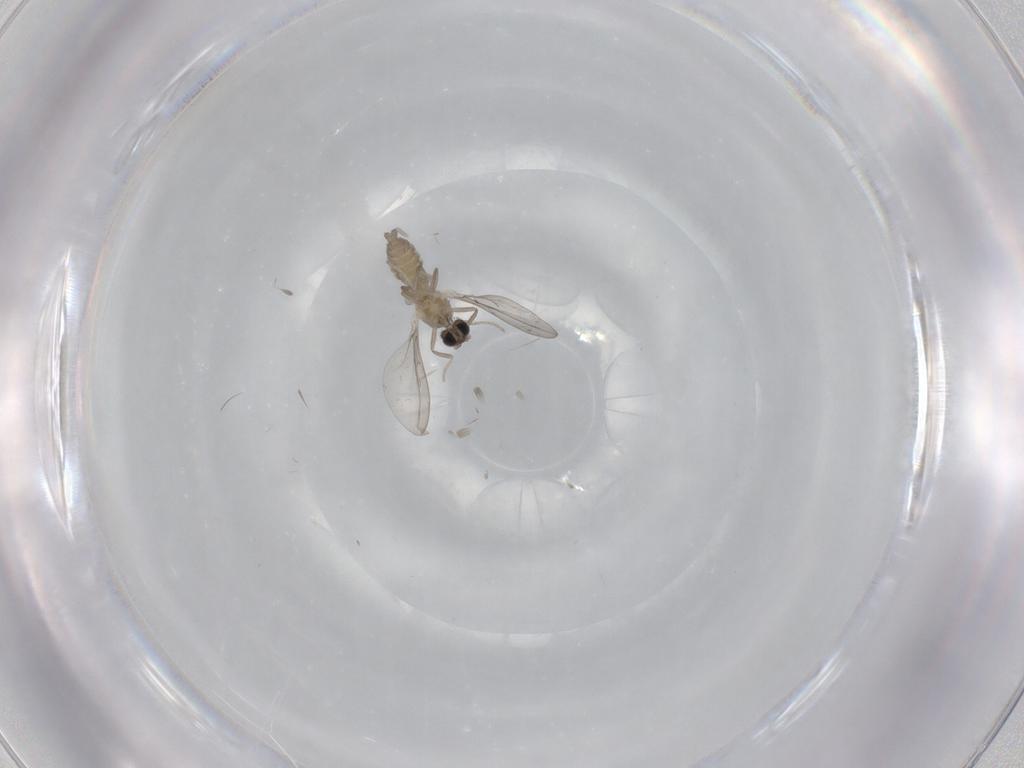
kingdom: Animalia
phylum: Arthropoda
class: Insecta
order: Diptera
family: Cecidomyiidae
